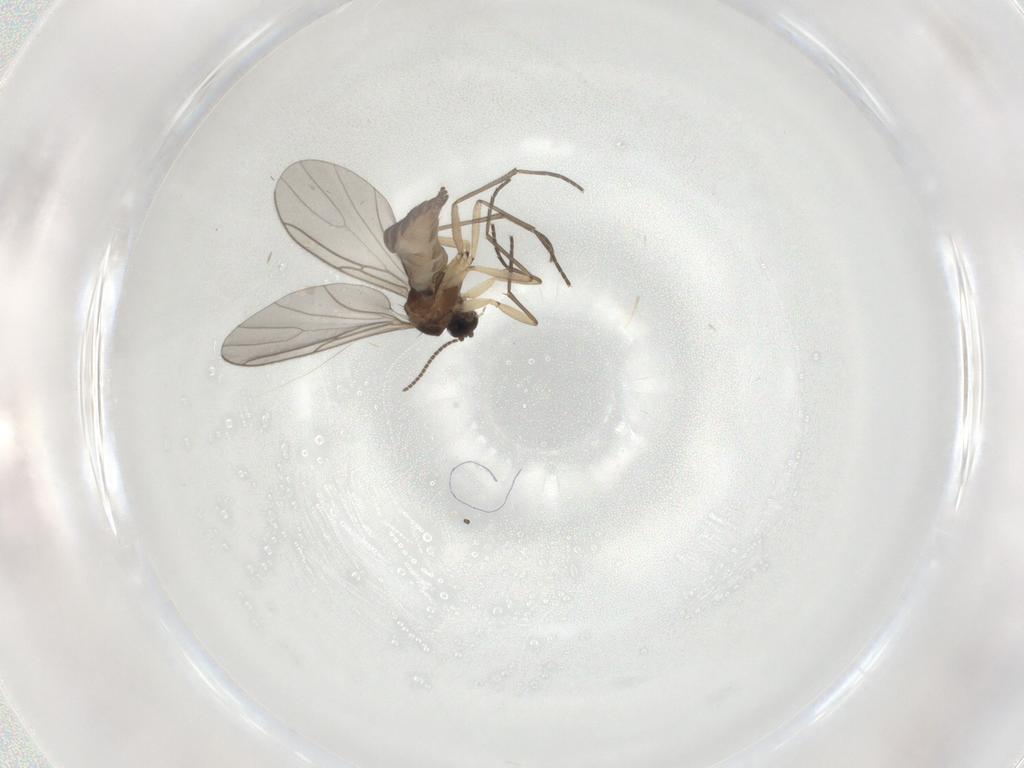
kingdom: Animalia
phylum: Arthropoda
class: Insecta
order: Diptera
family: Sciaridae
